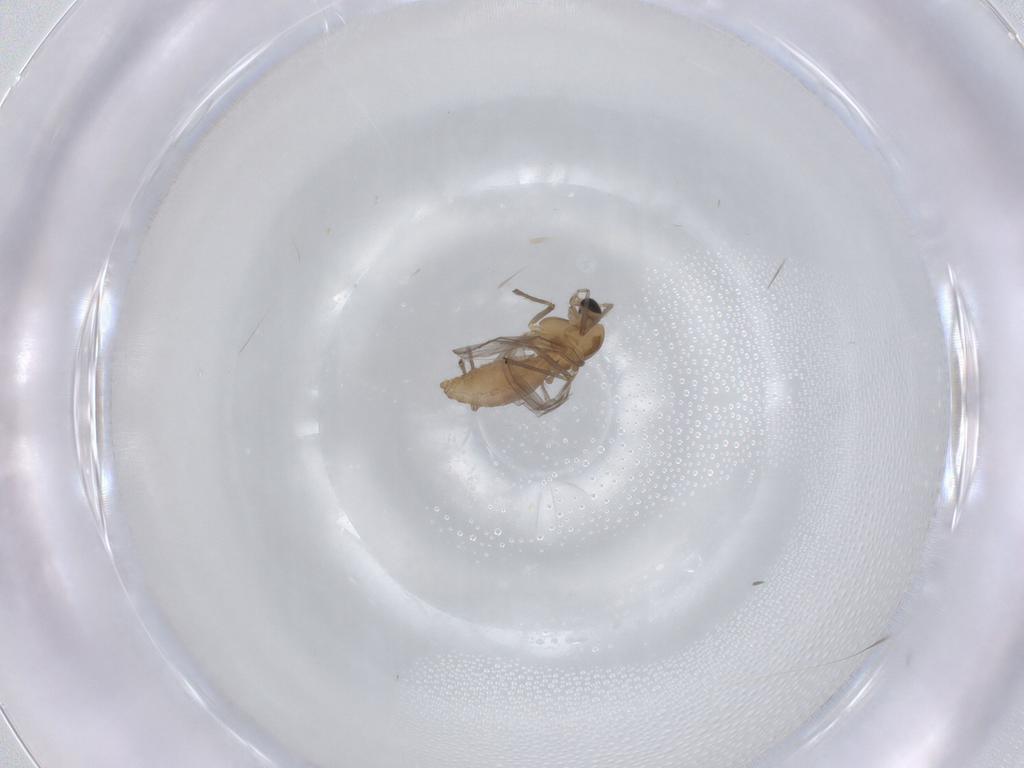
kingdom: Animalia
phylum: Arthropoda
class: Insecta
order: Diptera
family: Chironomidae
